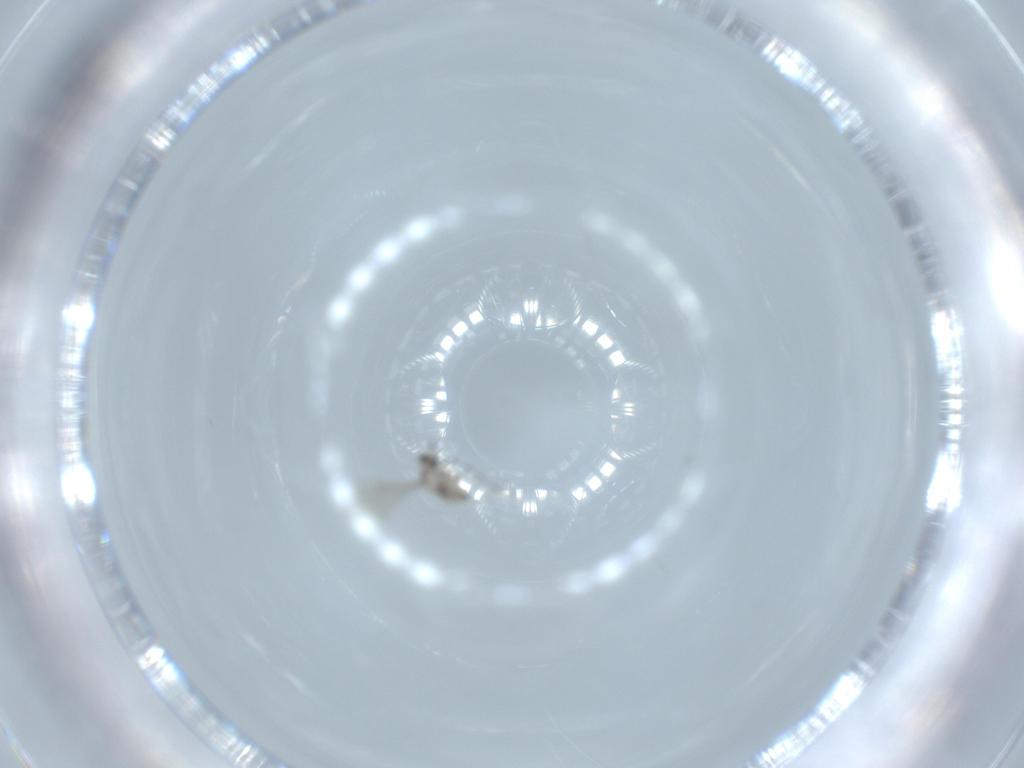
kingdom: Animalia
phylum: Arthropoda
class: Insecta
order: Diptera
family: Cecidomyiidae
